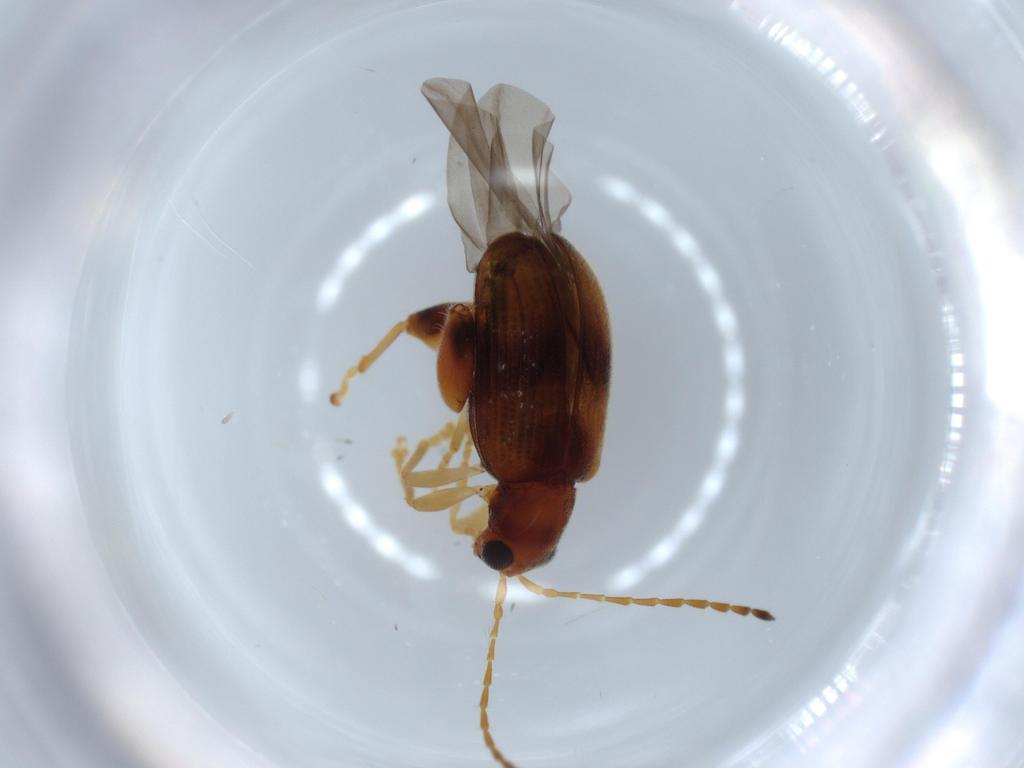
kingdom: Animalia
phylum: Arthropoda
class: Insecta
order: Coleoptera
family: Chrysomelidae
